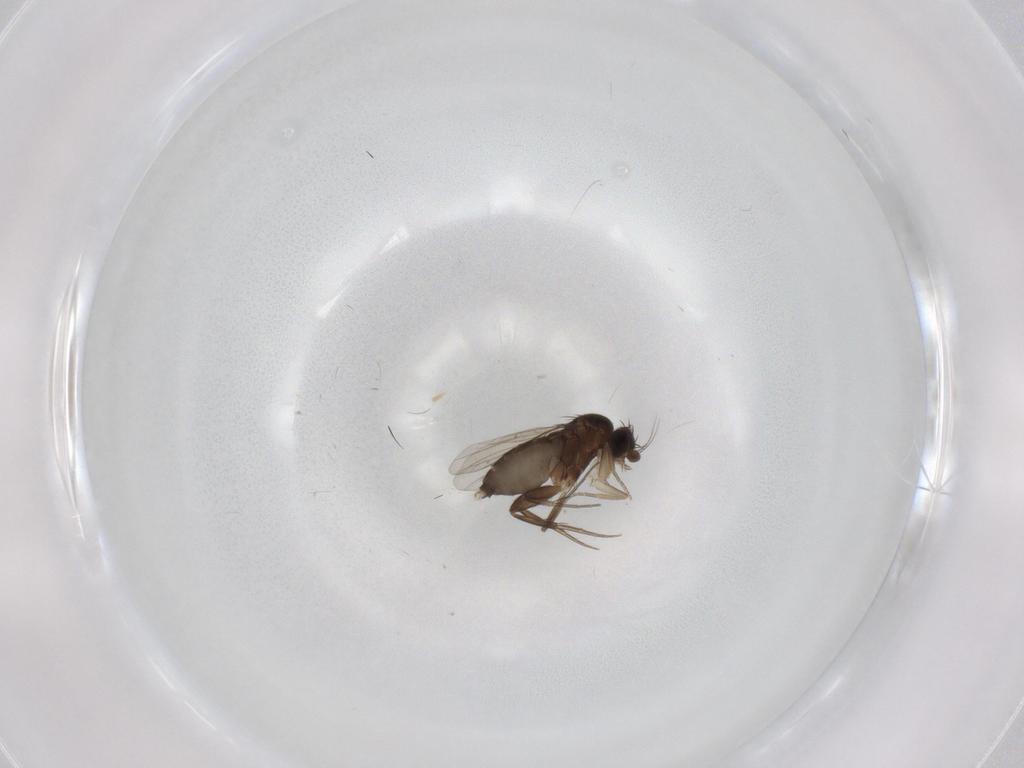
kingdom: Animalia
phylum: Arthropoda
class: Insecta
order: Diptera
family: Phoridae
